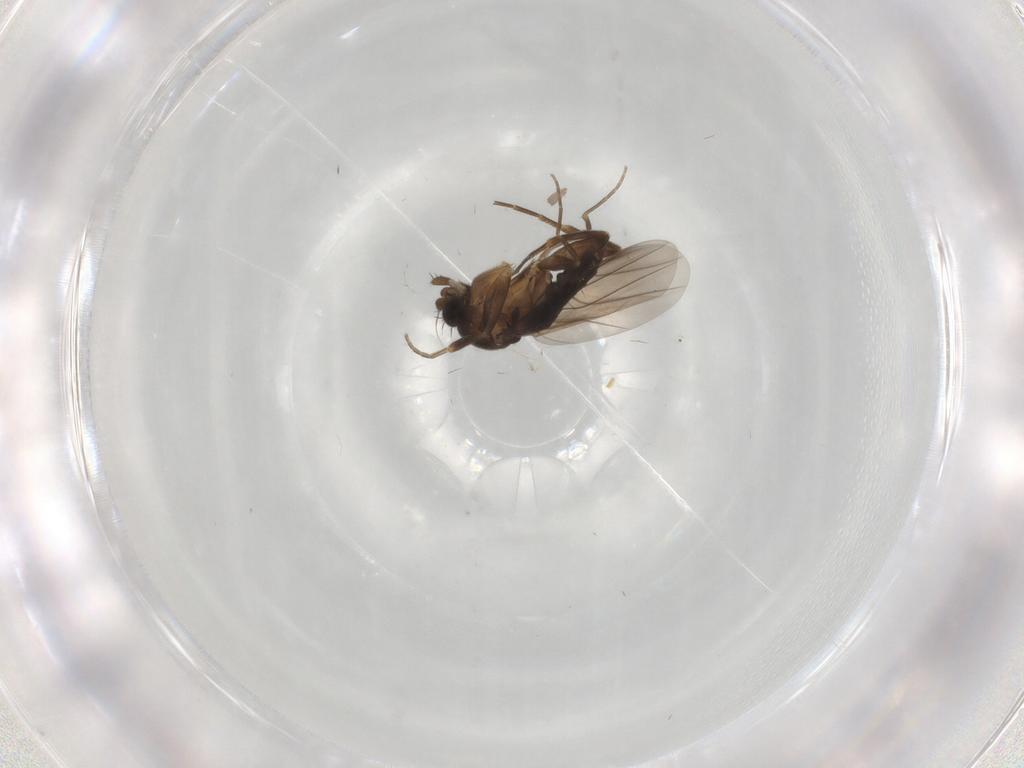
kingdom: Animalia
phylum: Arthropoda
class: Insecta
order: Diptera
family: Phoridae
